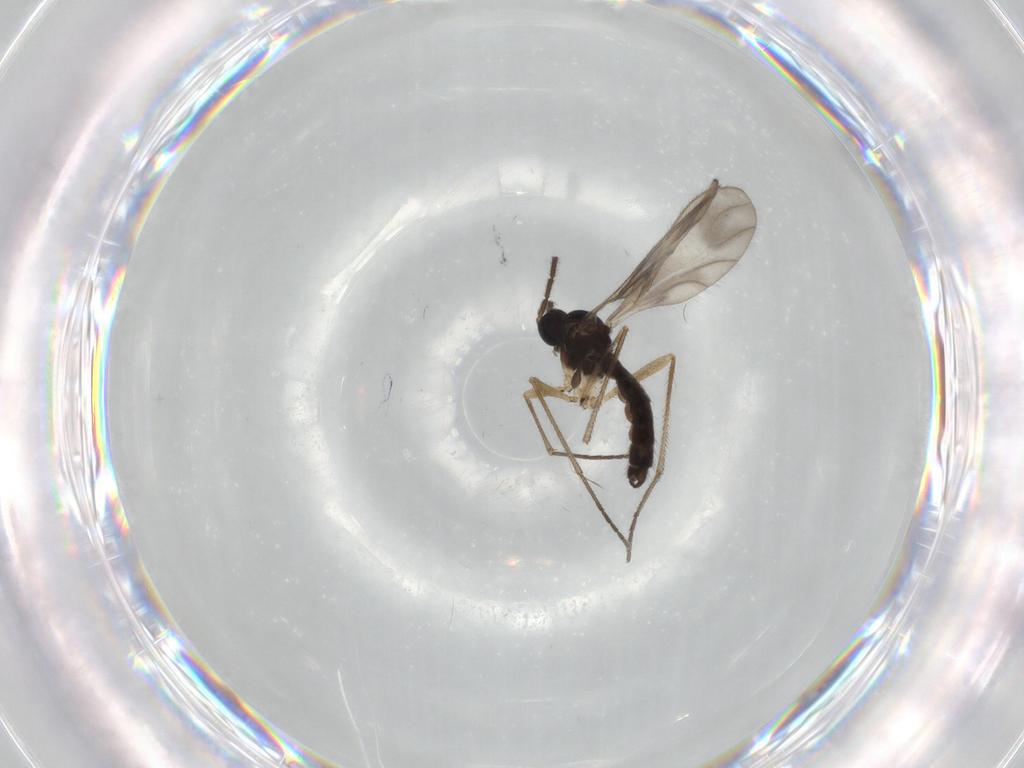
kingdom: Animalia
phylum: Arthropoda
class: Insecta
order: Diptera
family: Sciaridae
